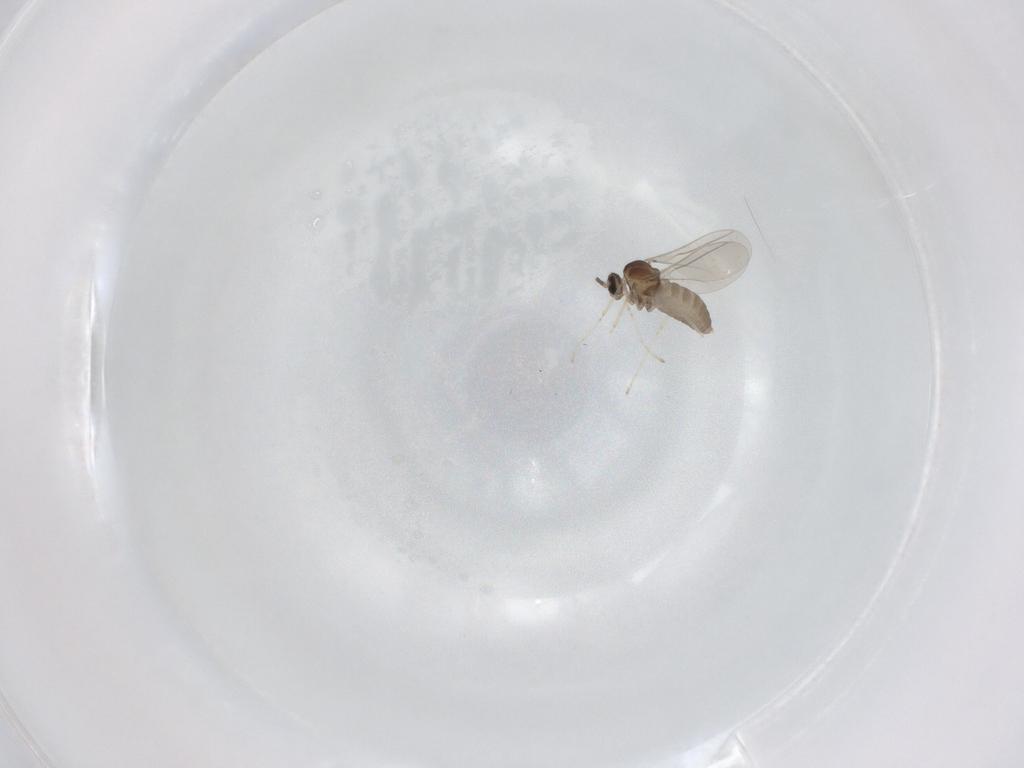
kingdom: Animalia
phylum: Arthropoda
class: Insecta
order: Diptera
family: Cecidomyiidae
